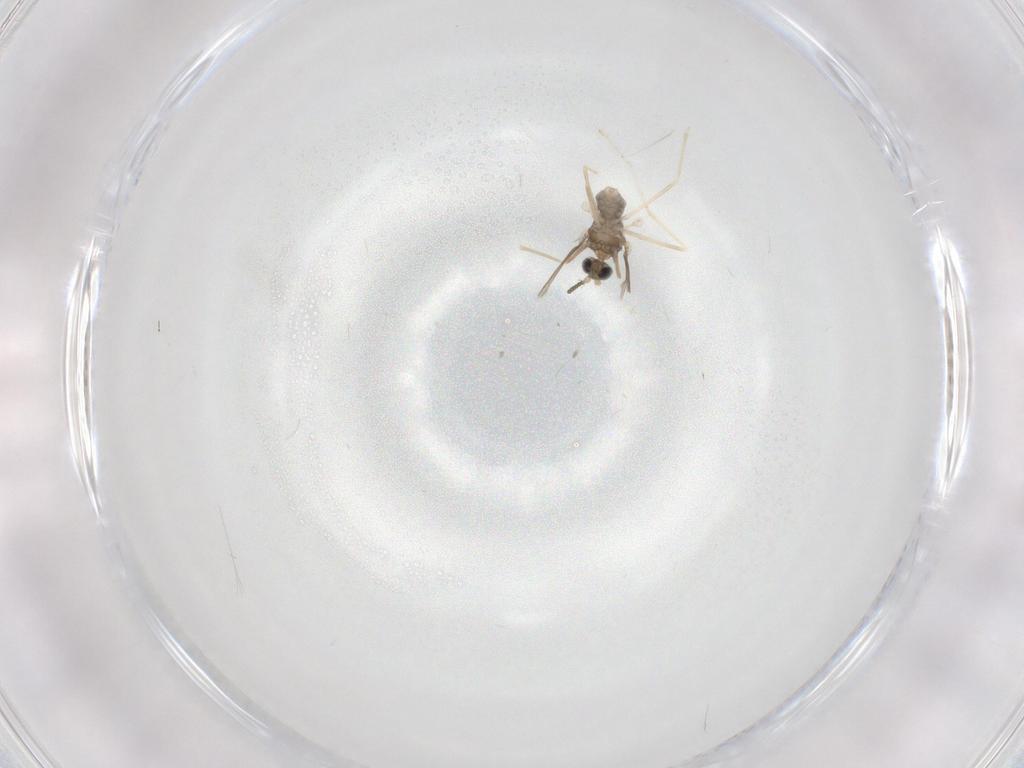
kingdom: Animalia
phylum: Arthropoda
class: Insecta
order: Diptera
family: Cecidomyiidae
